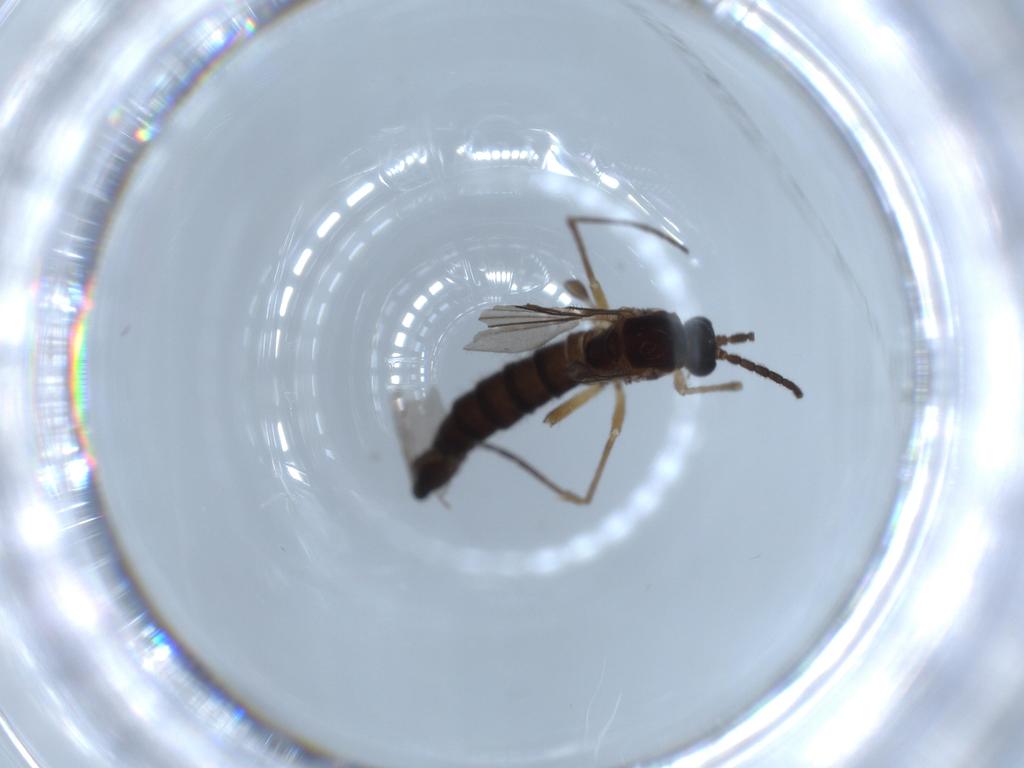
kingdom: Animalia
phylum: Arthropoda
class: Insecta
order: Diptera
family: Sciaridae
